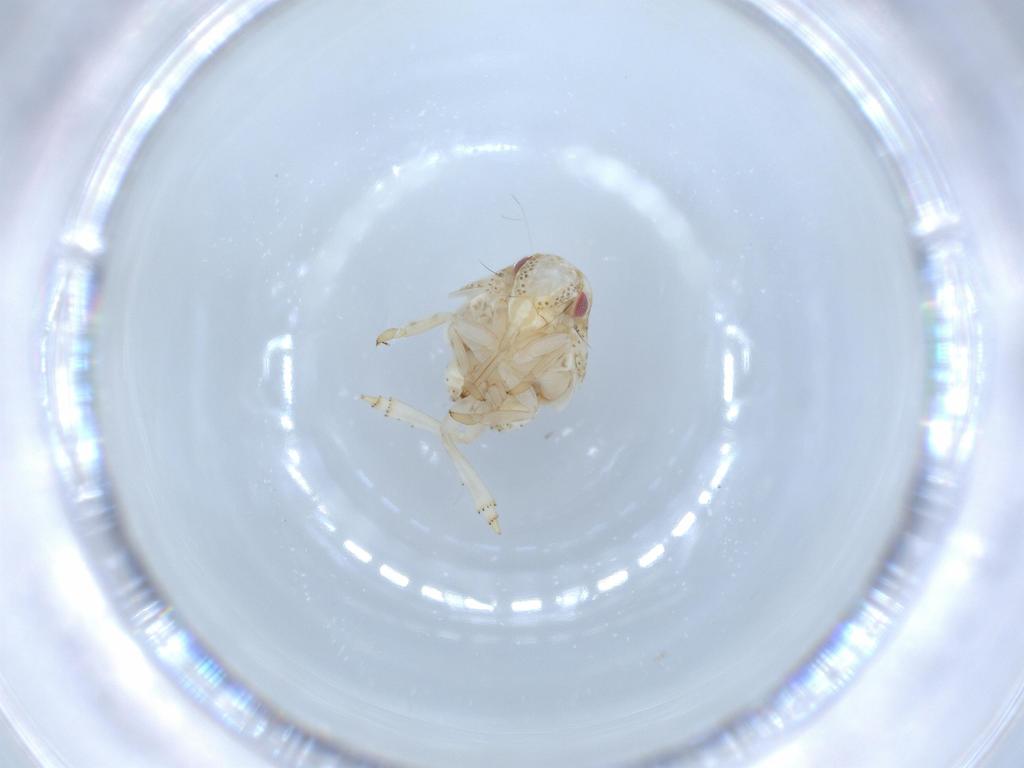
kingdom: Animalia
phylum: Arthropoda
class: Insecta
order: Hemiptera
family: Acanaloniidae
